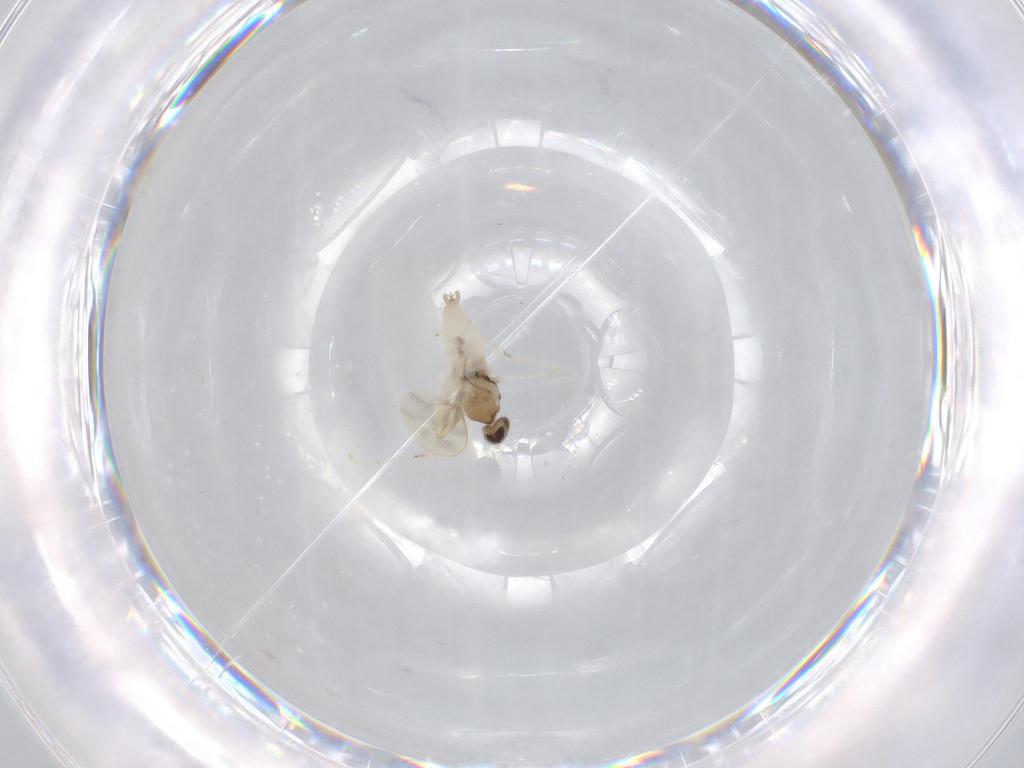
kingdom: Animalia
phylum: Arthropoda
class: Insecta
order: Diptera
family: Cecidomyiidae
